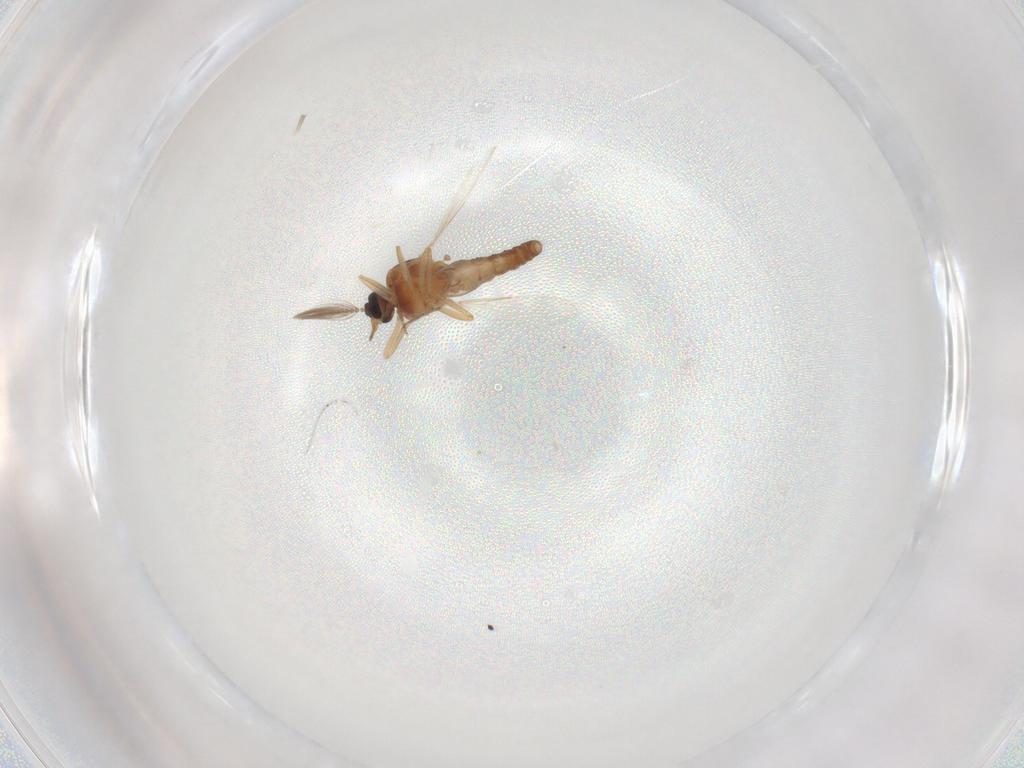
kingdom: Animalia
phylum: Arthropoda
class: Insecta
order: Diptera
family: Ceratopogonidae
